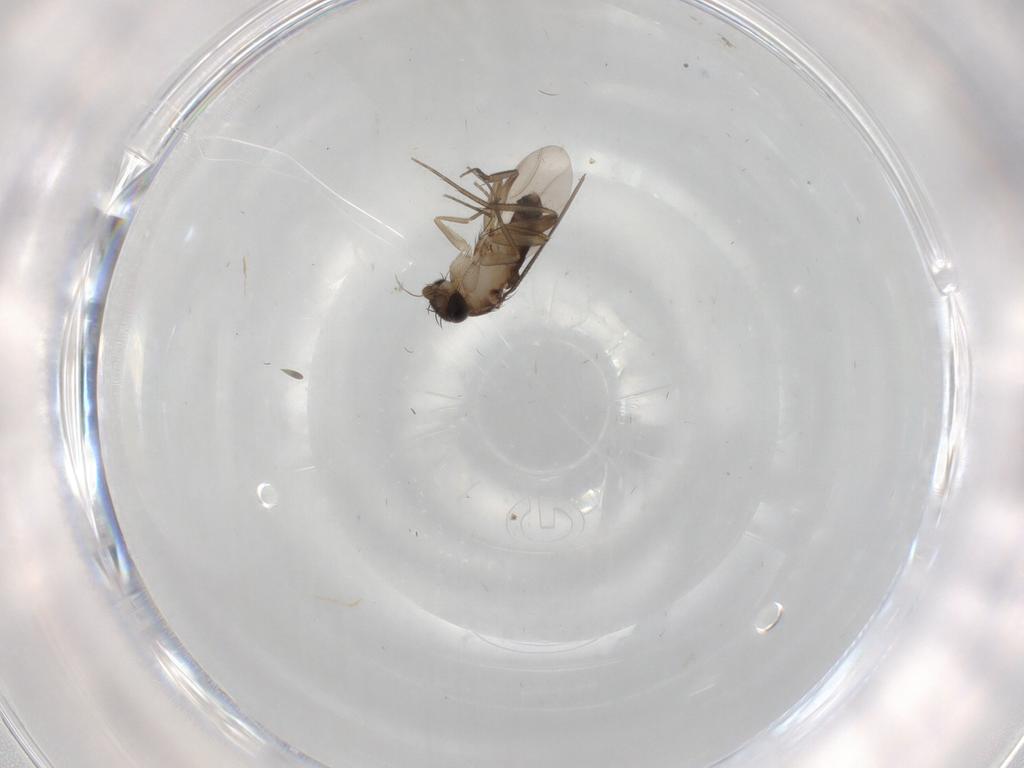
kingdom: Animalia
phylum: Arthropoda
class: Insecta
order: Diptera
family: Phoridae
